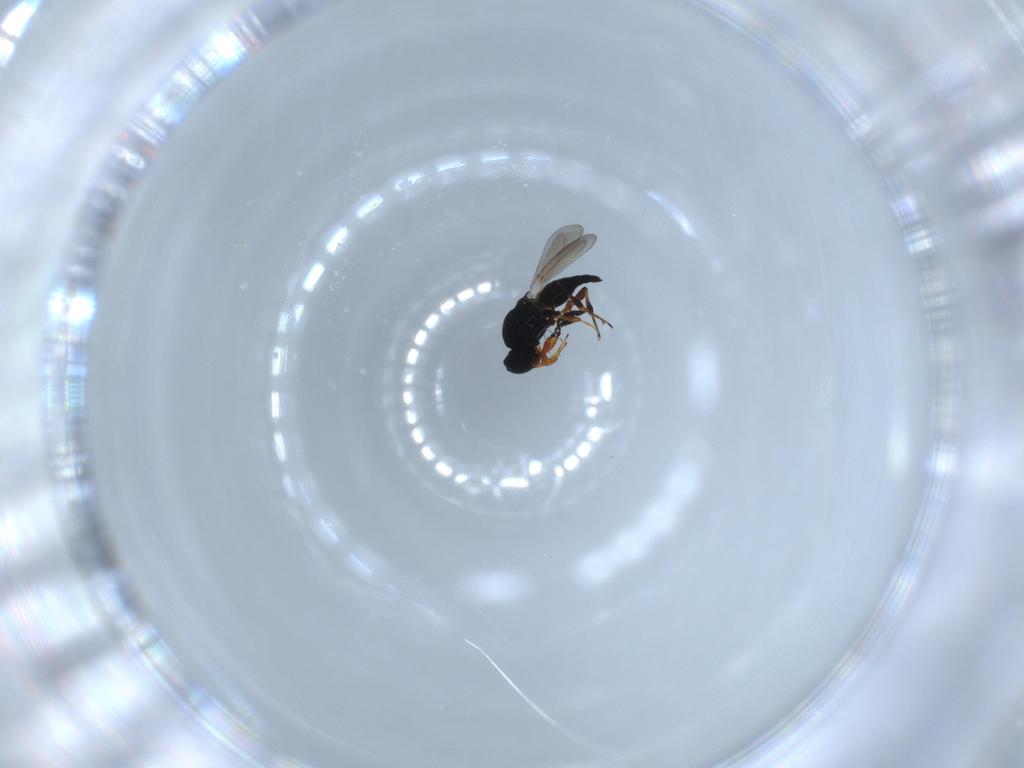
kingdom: Animalia
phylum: Arthropoda
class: Insecta
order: Hymenoptera
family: Platygastridae
